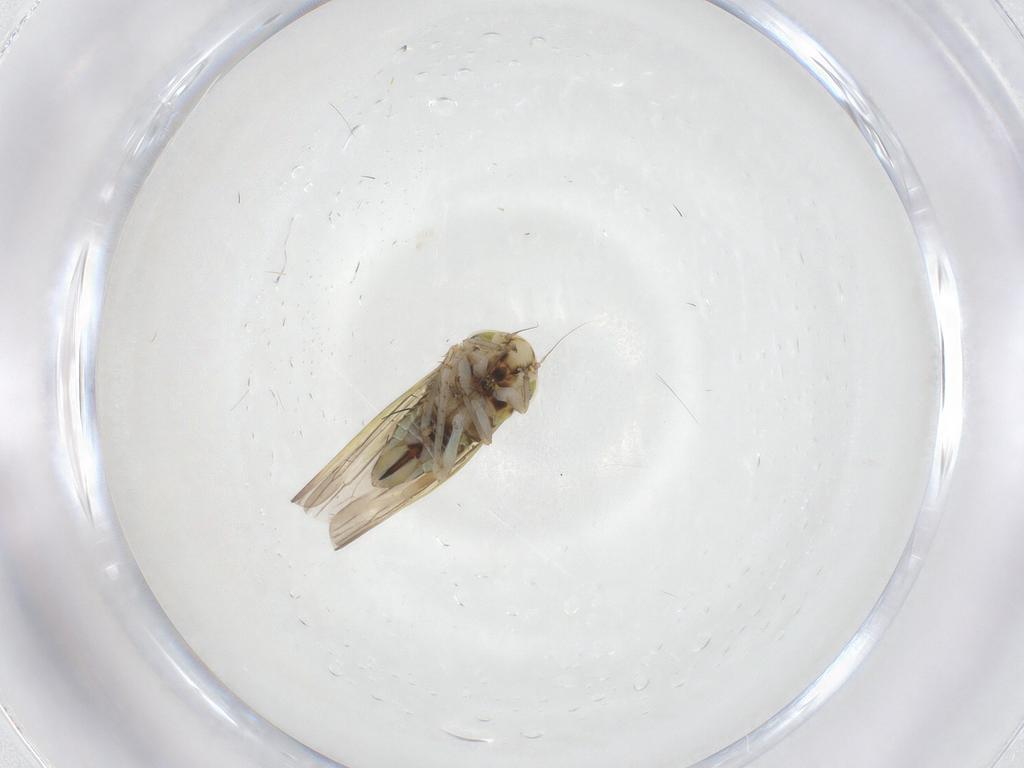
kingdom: Animalia
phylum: Arthropoda
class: Insecta
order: Hemiptera
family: Cicadellidae
